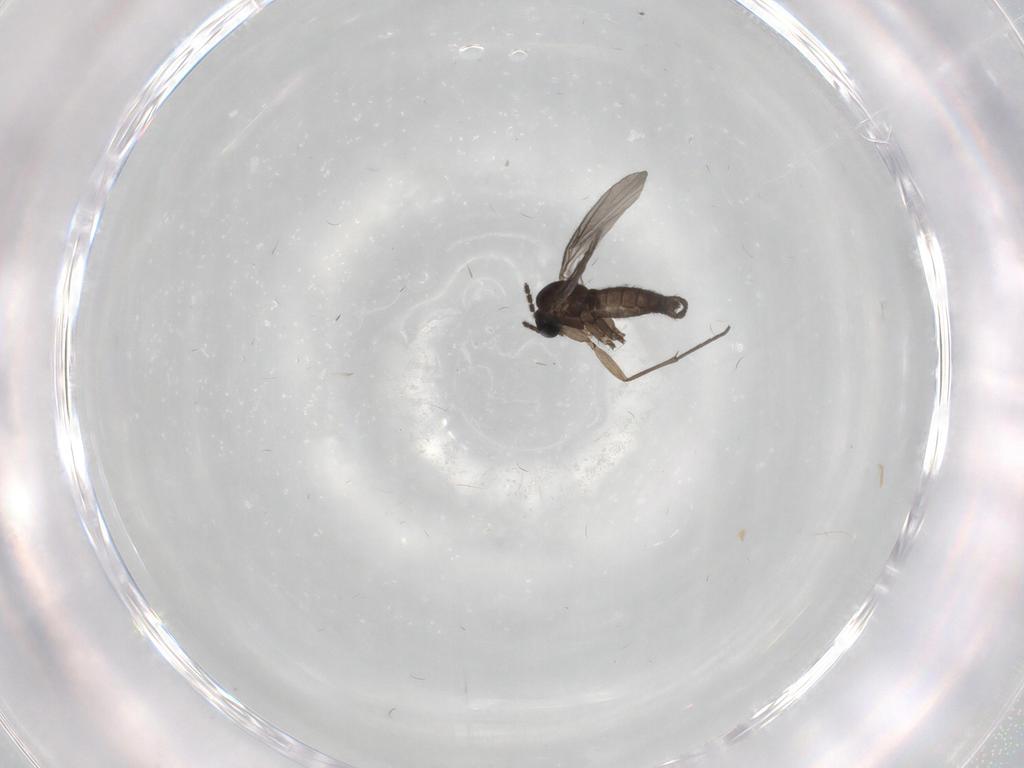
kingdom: Animalia
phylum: Arthropoda
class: Insecta
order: Diptera
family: Sciaridae
